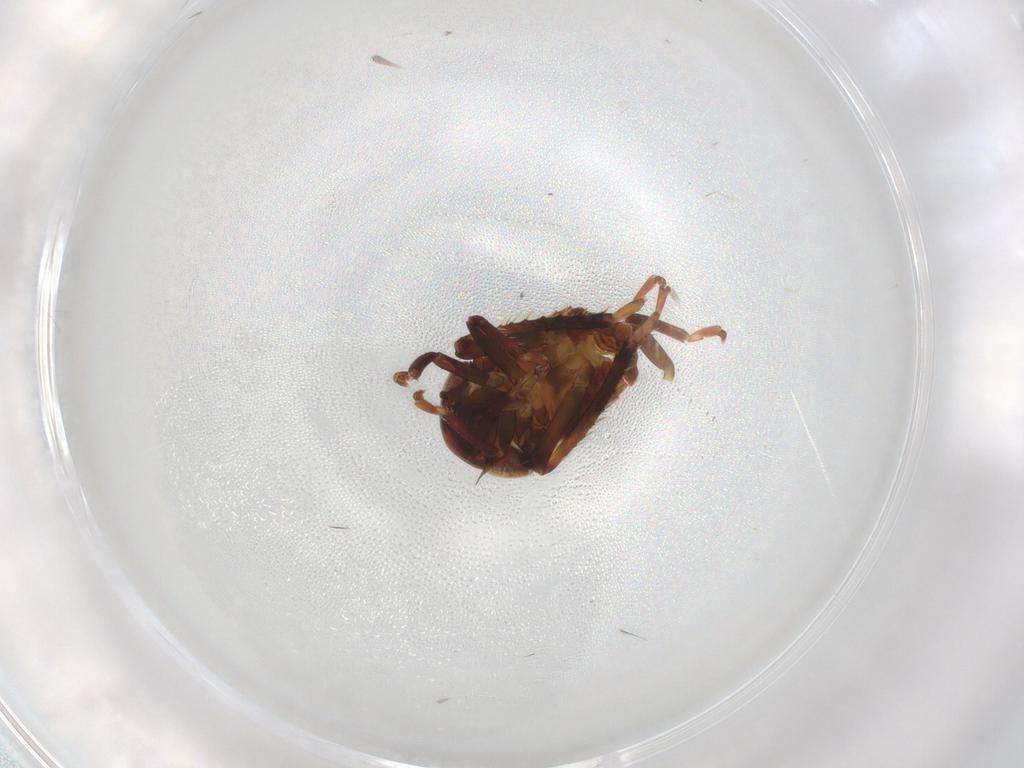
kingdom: Animalia
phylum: Arthropoda
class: Insecta
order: Hemiptera
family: Cicadellidae
